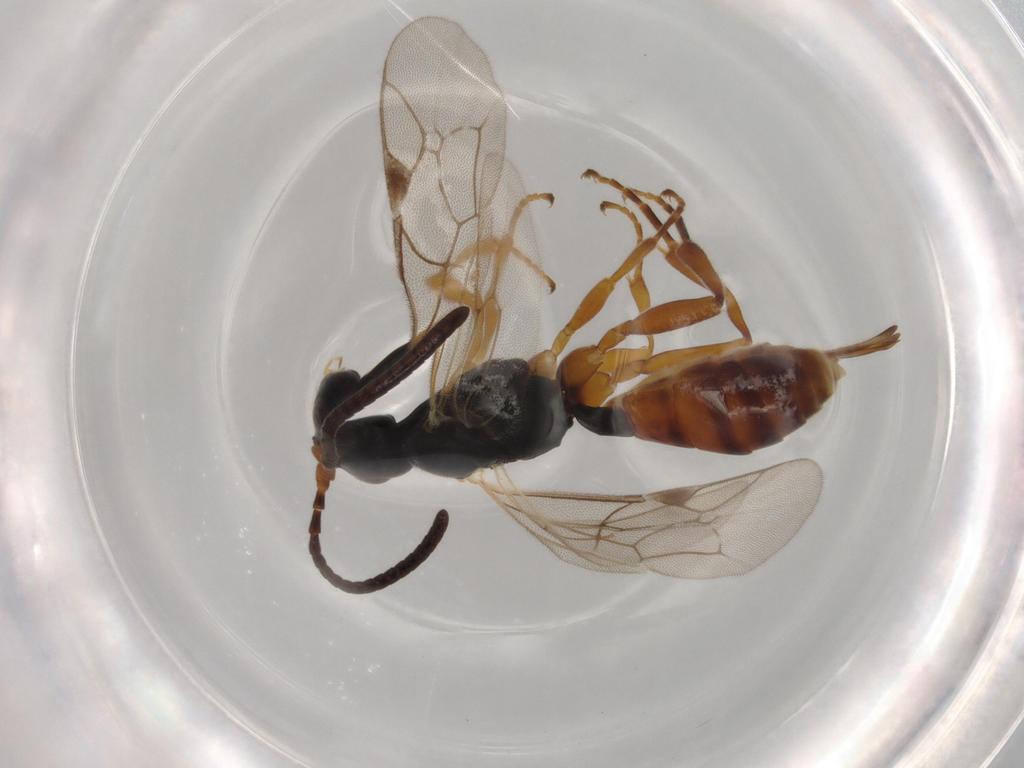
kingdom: Animalia
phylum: Arthropoda
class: Insecta
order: Hymenoptera
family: Ichneumonidae
